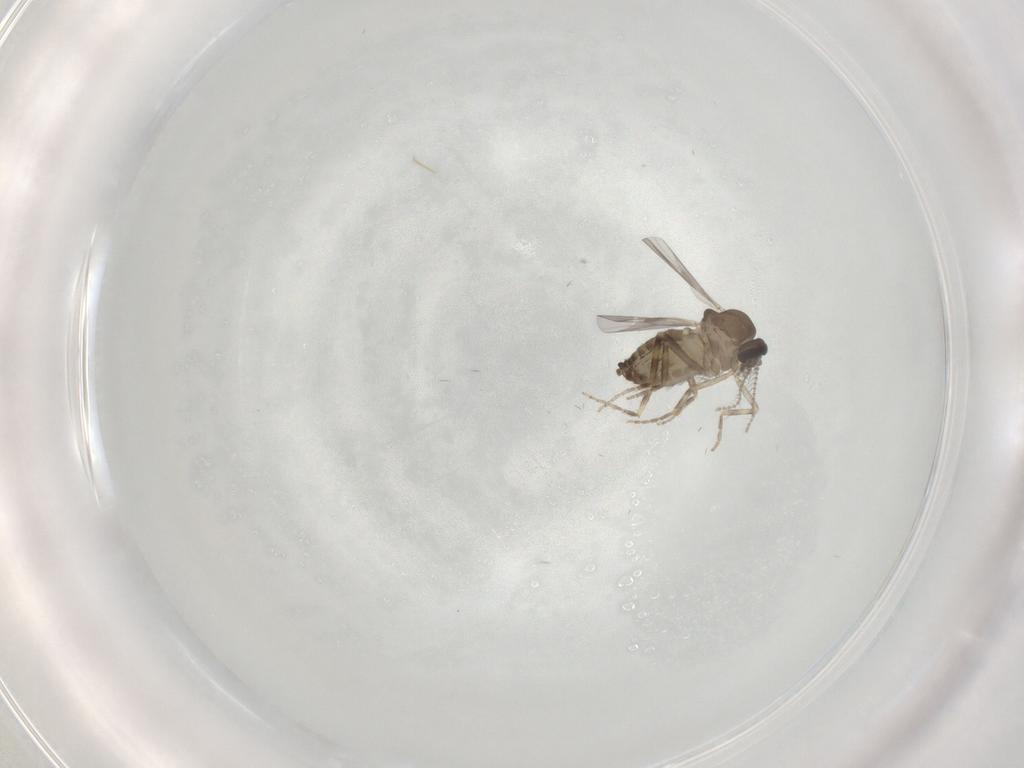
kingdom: Animalia
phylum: Arthropoda
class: Insecta
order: Diptera
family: Ceratopogonidae
